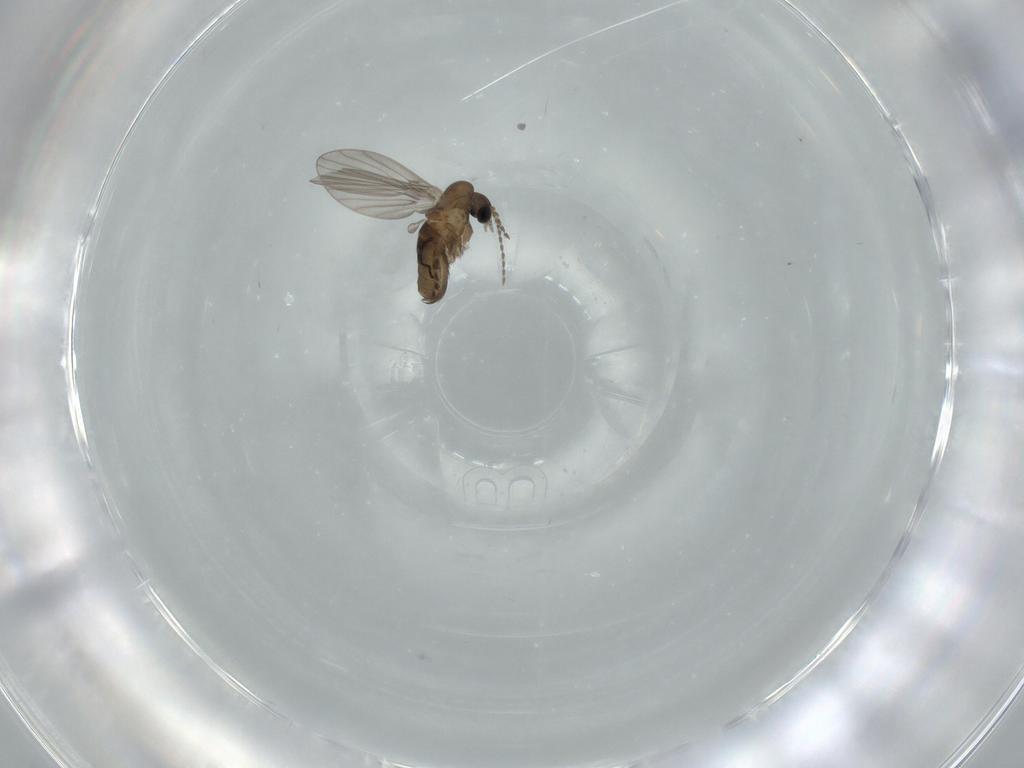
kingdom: Animalia
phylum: Arthropoda
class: Insecta
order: Diptera
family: Psychodidae
